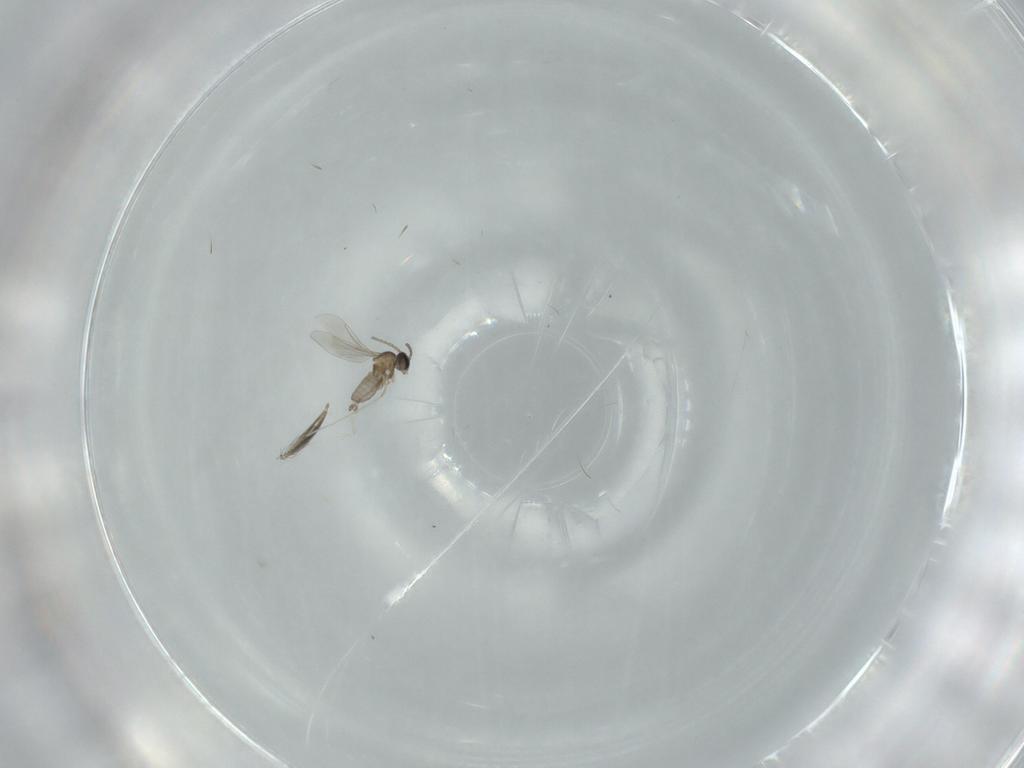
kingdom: Animalia
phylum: Arthropoda
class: Insecta
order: Diptera
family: Cecidomyiidae
